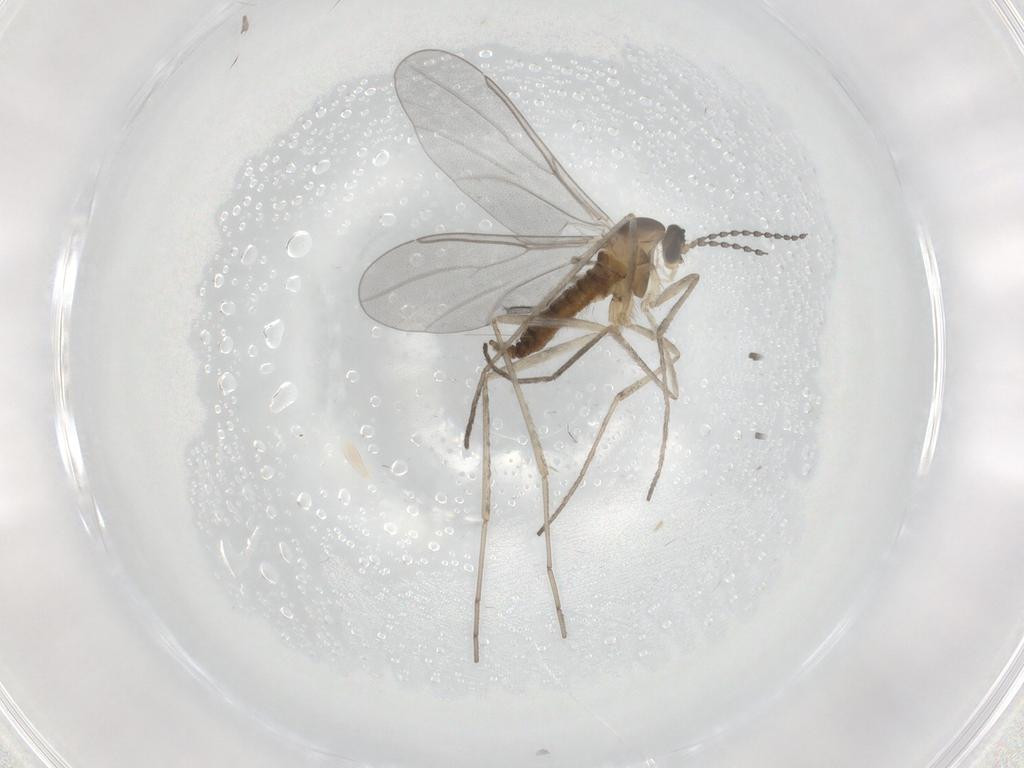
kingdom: Animalia
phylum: Arthropoda
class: Insecta
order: Diptera
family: Cecidomyiidae
